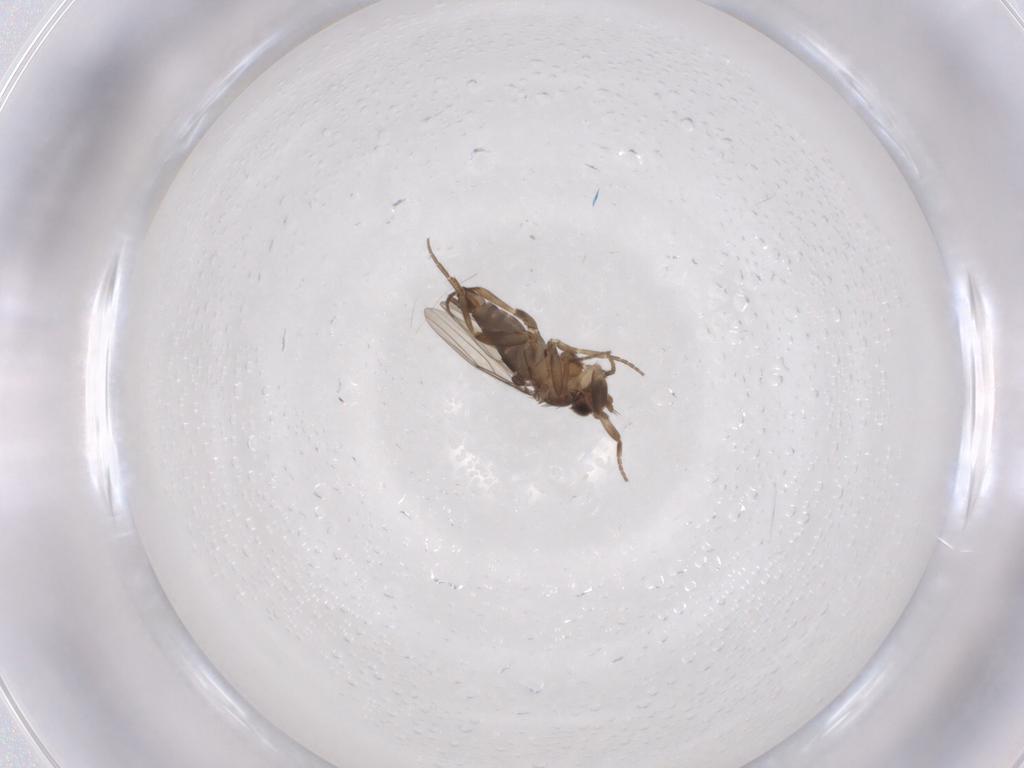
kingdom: Animalia
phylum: Arthropoda
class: Insecta
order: Diptera
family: Phoridae
